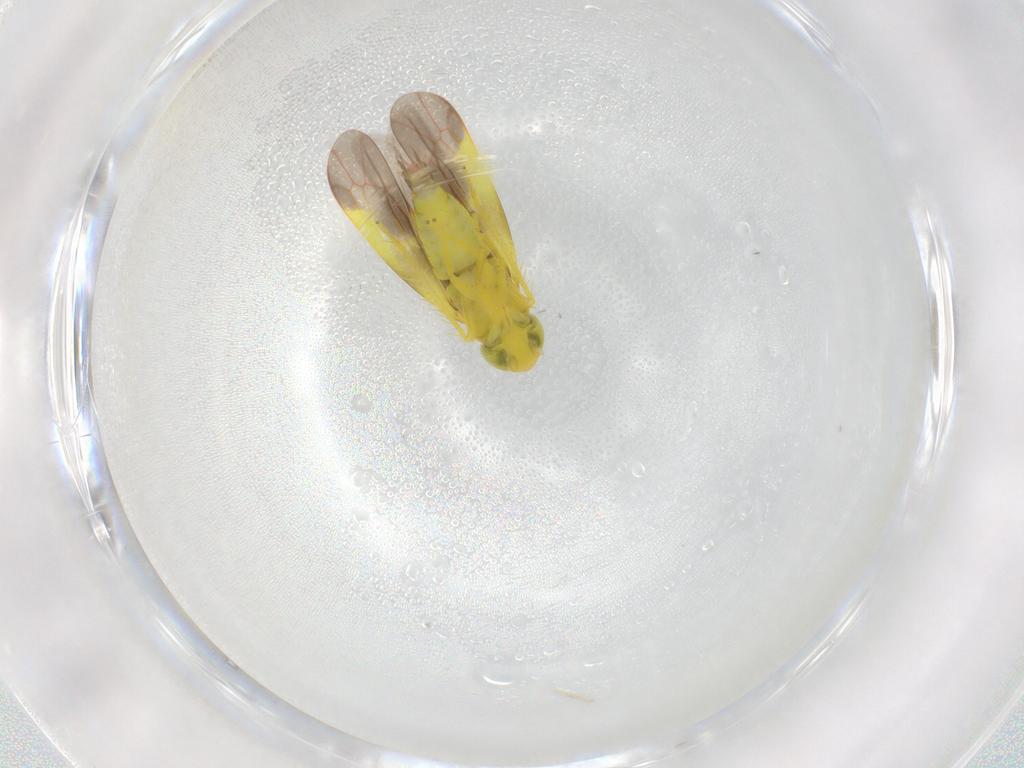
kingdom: Animalia
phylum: Arthropoda
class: Insecta
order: Hemiptera
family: Cicadellidae
